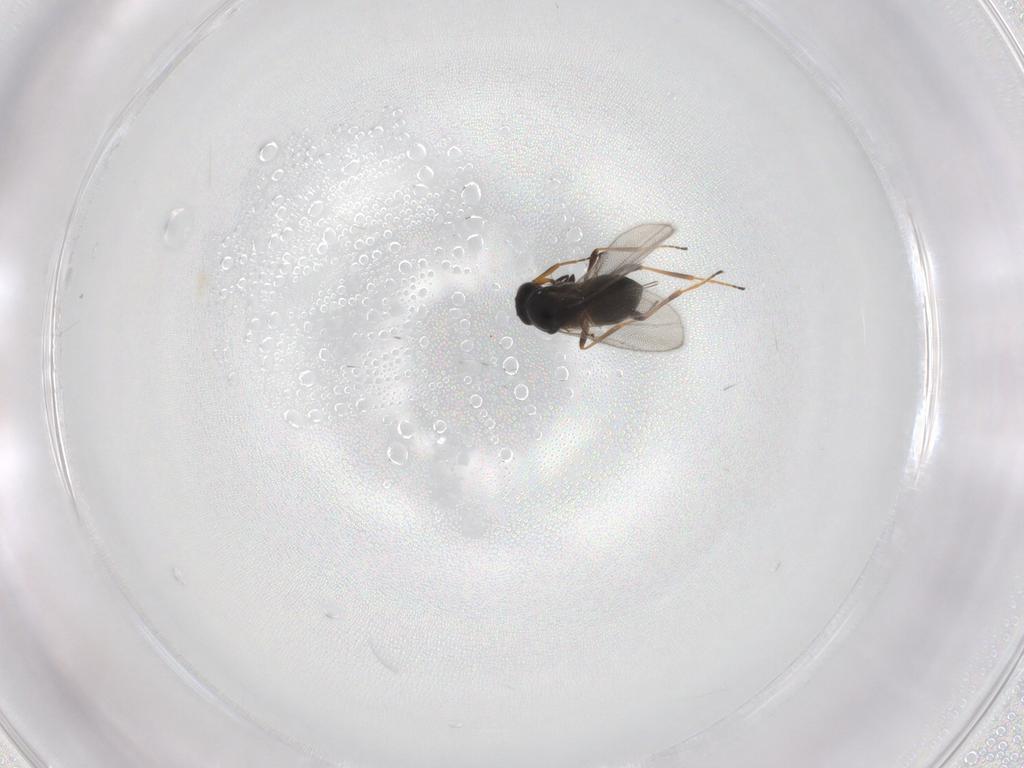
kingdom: Animalia
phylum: Arthropoda
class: Insecta
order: Hymenoptera
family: Platygastridae
